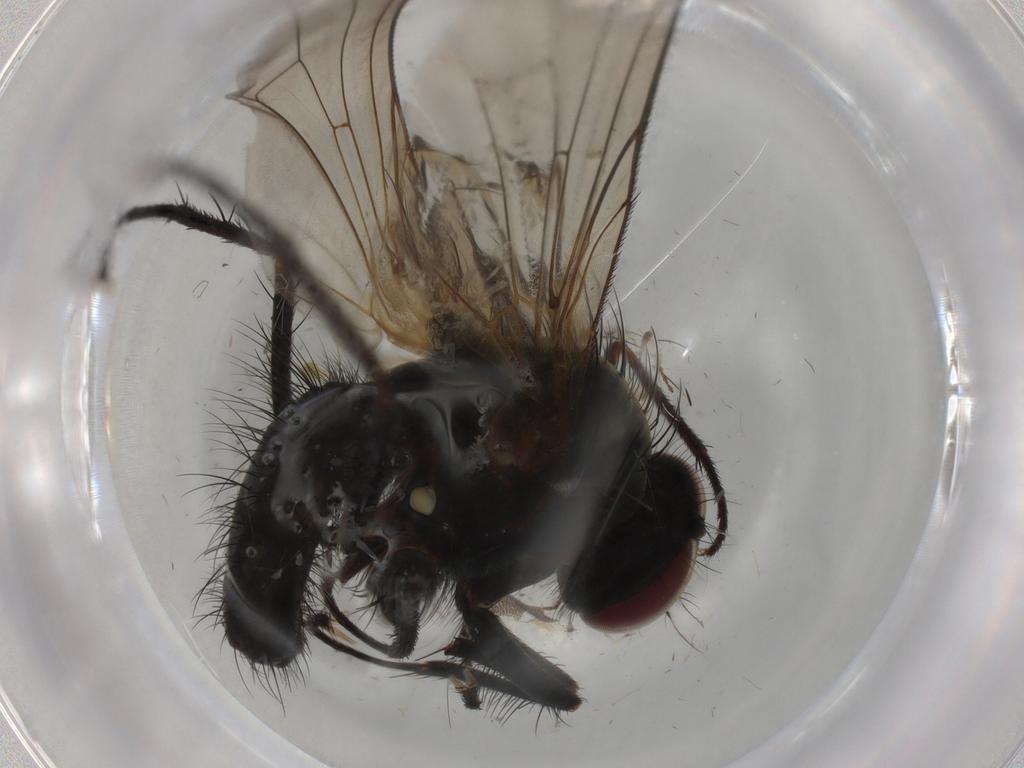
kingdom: Animalia
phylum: Arthropoda
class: Insecta
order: Diptera
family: Anthomyiidae
